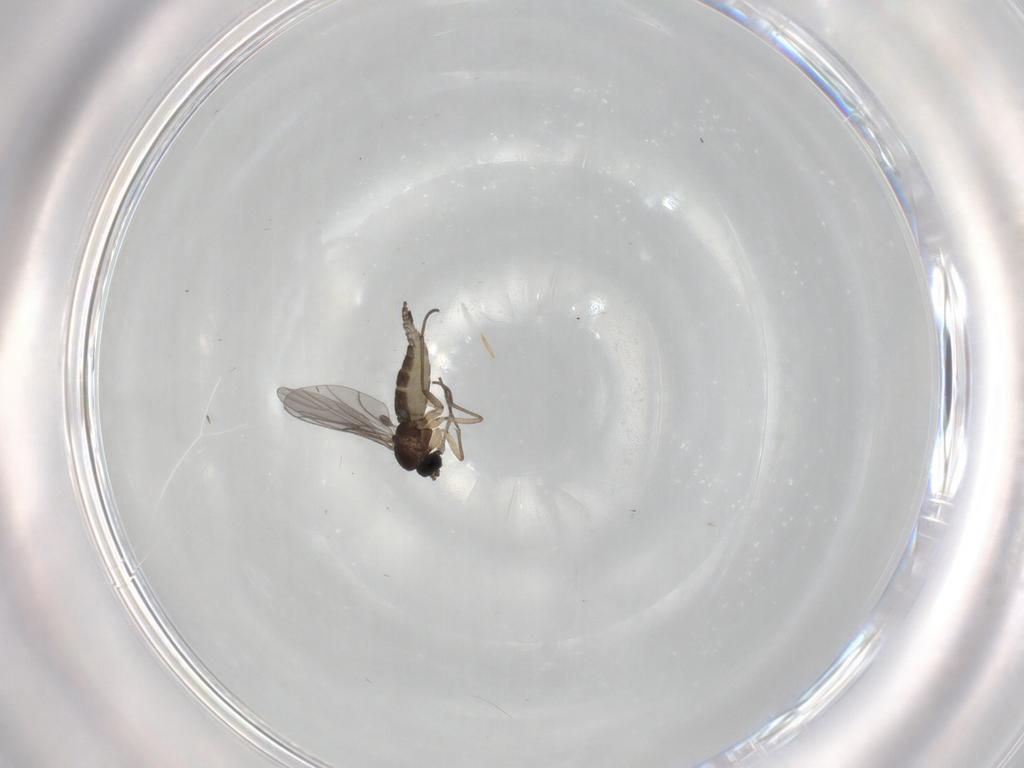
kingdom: Animalia
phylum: Arthropoda
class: Insecta
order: Diptera
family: Sciaridae
